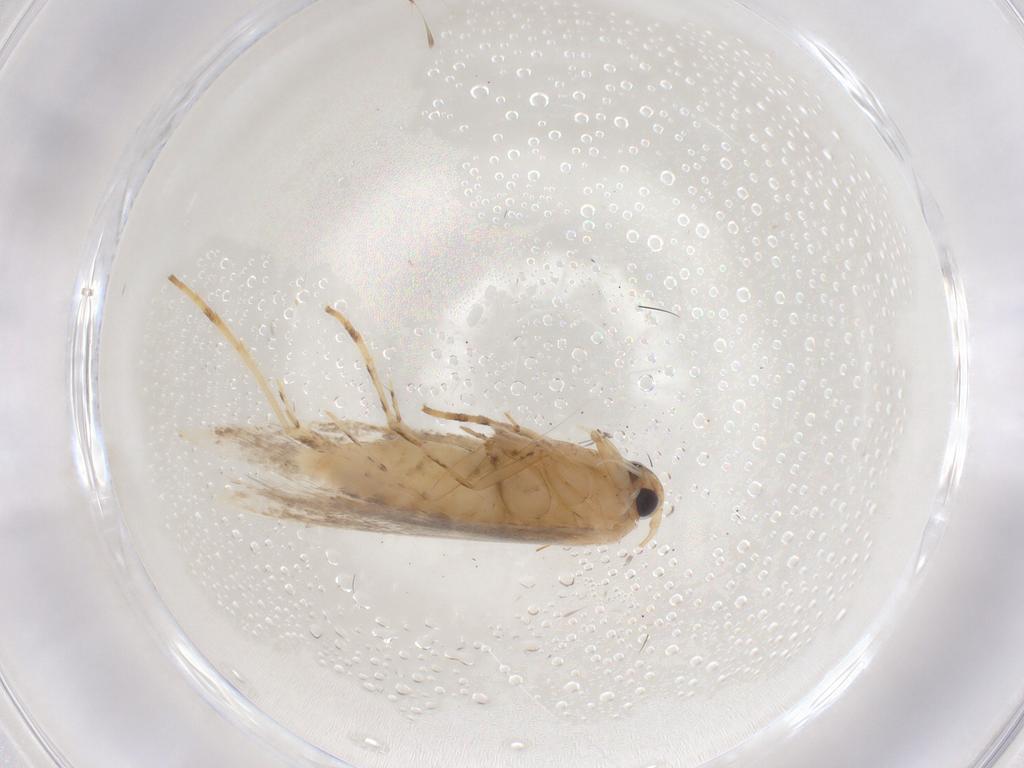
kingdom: Animalia
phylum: Arthropoda
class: Insecta
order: Lepidoptera
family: Gracillariidae
